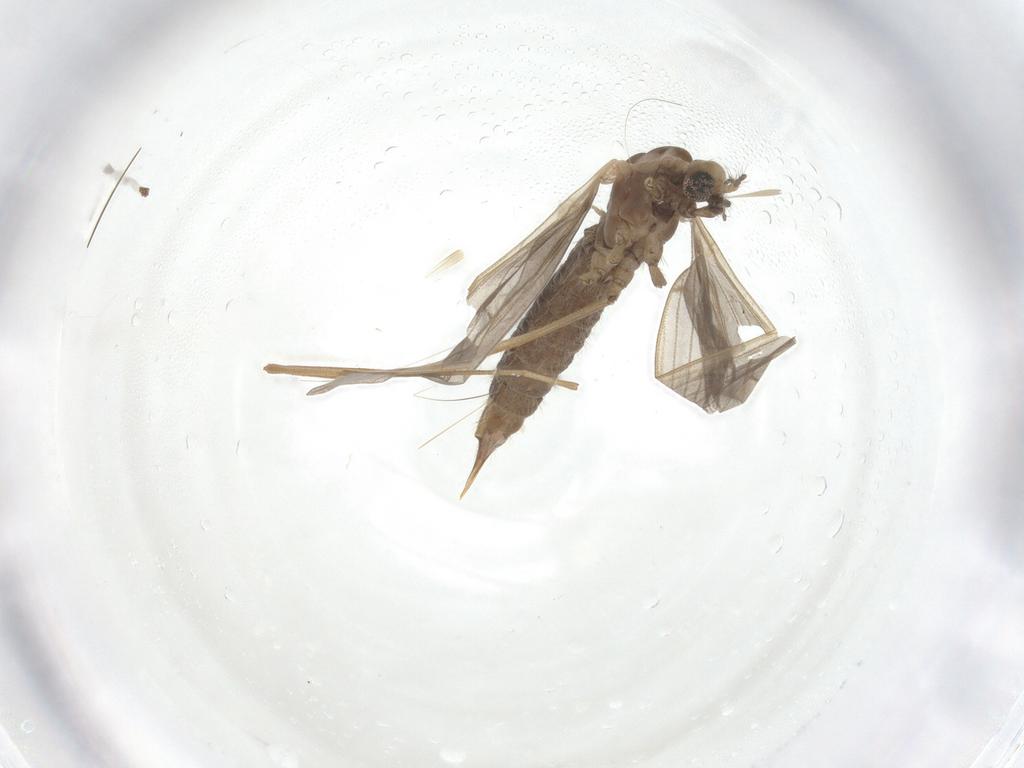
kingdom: Animalia
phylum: Arthropoda
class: Insecta
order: Diptera
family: Limoniidae
